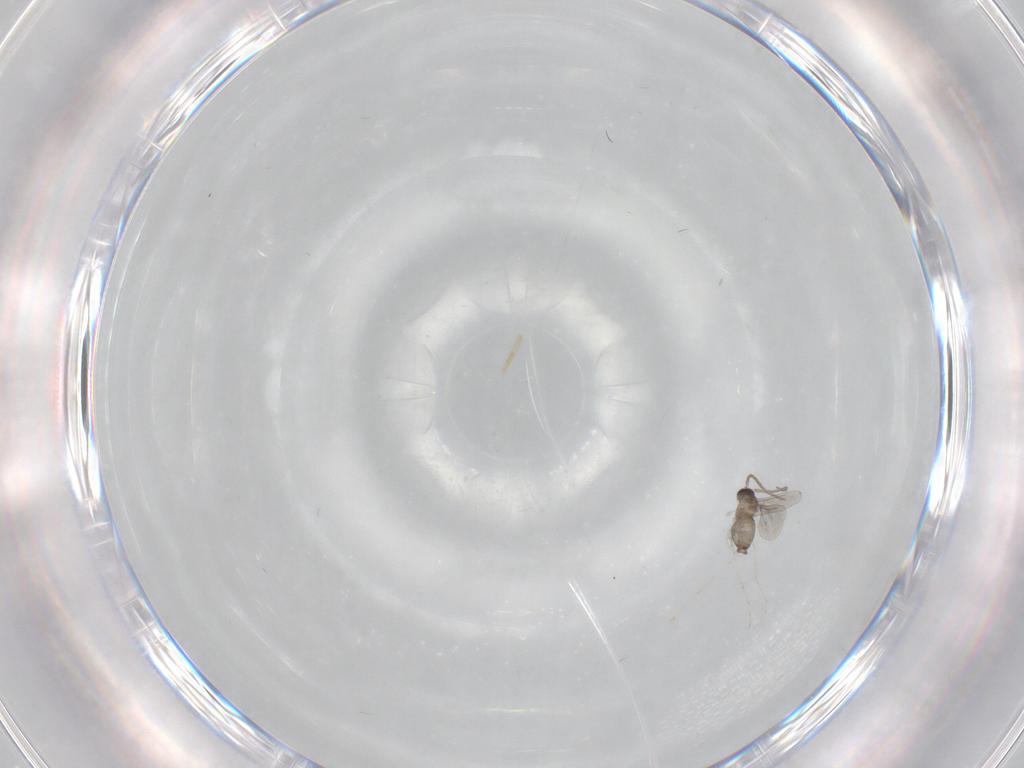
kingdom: Animalia
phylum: Arthropoda
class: Insecta
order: Diptera
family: Cecidomyiidae
